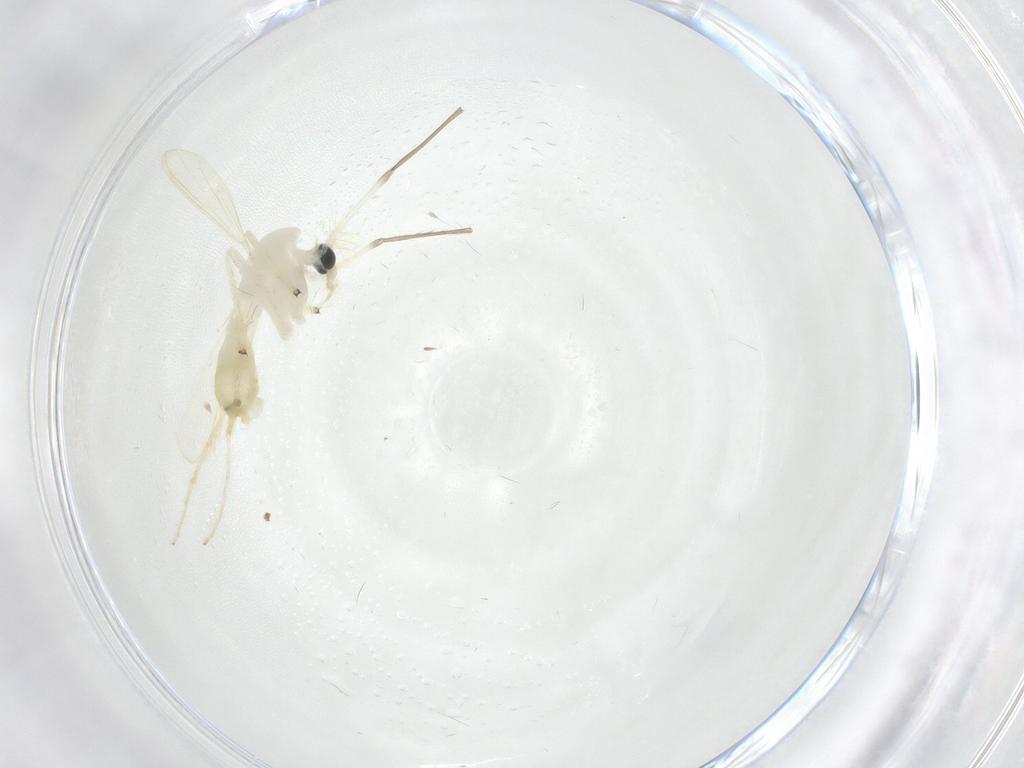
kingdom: Animalia
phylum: Arthropoda
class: Insecta
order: Diptera
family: Chironomidae
